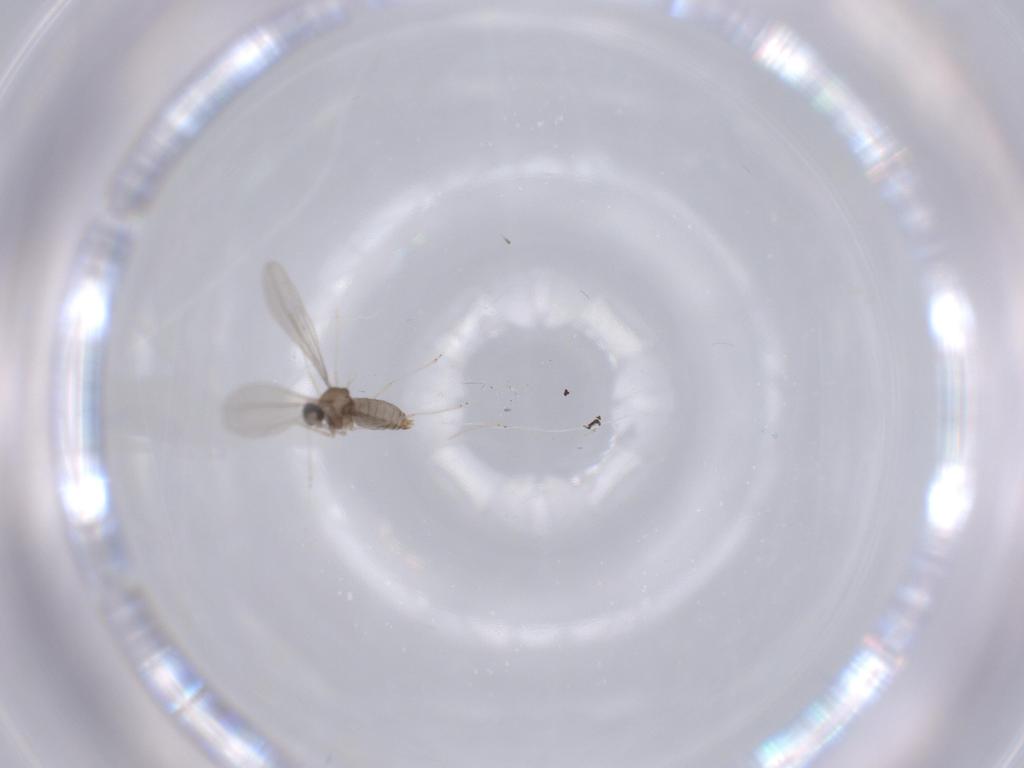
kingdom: Animalia
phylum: Arthropoda
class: Insecta
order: Diptera
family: Cecidomyiidae
